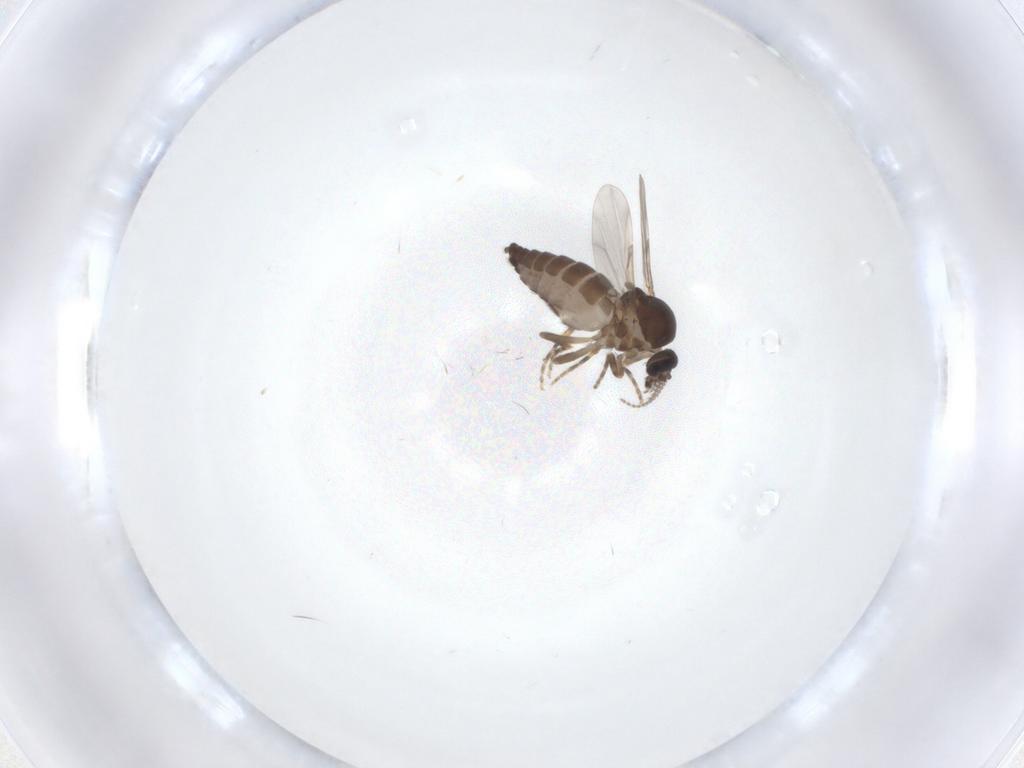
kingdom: Animalia
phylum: Arthropoda
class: Insecta
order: Diptera
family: Ceratopogonidae
